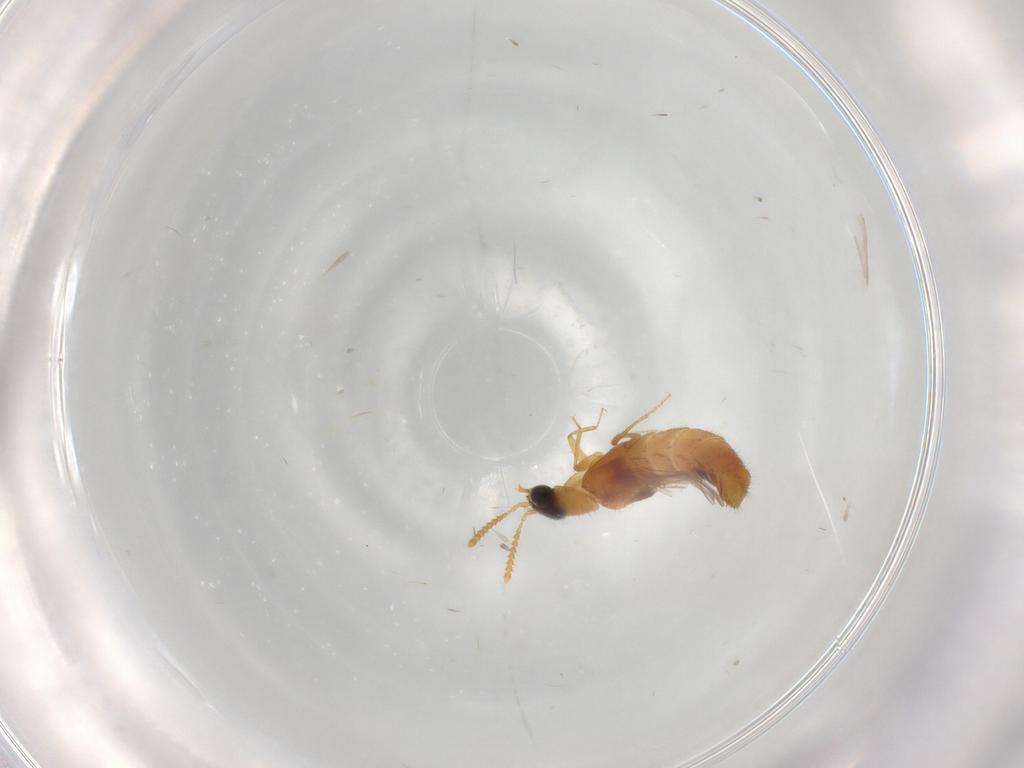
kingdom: Animalia
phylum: Arthropoda
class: Insecta
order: Coleoptera
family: Staphylinidae
